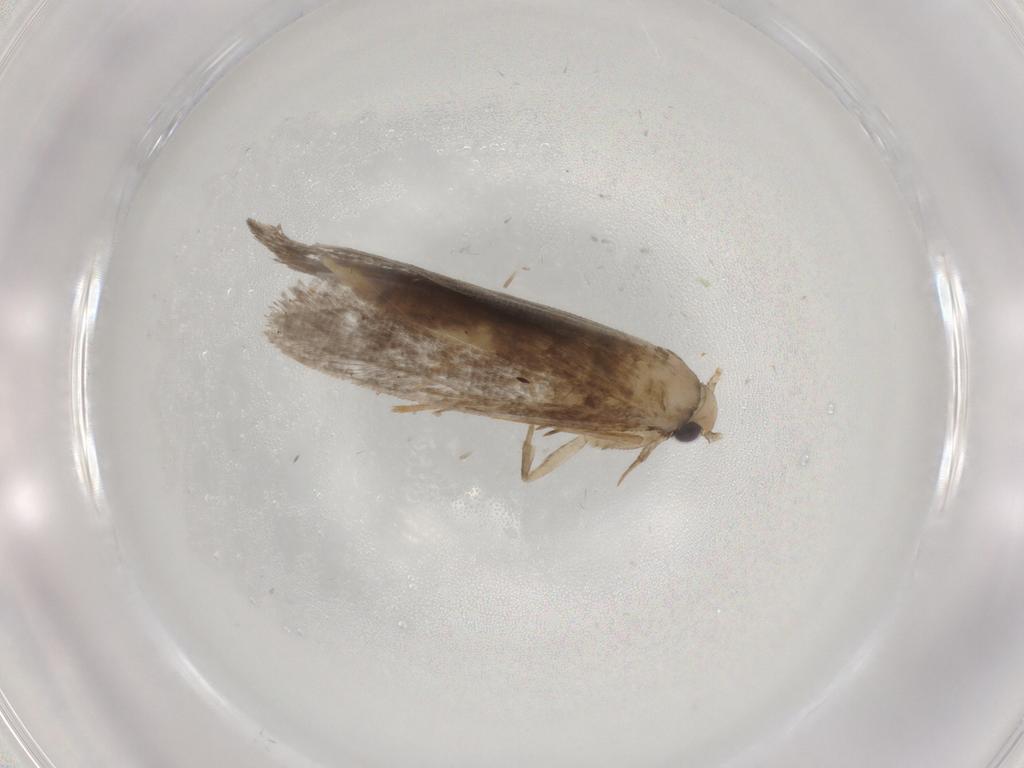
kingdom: Animalia
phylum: Arthropoda
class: Insecta
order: Lepidoptera
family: Tineidae
